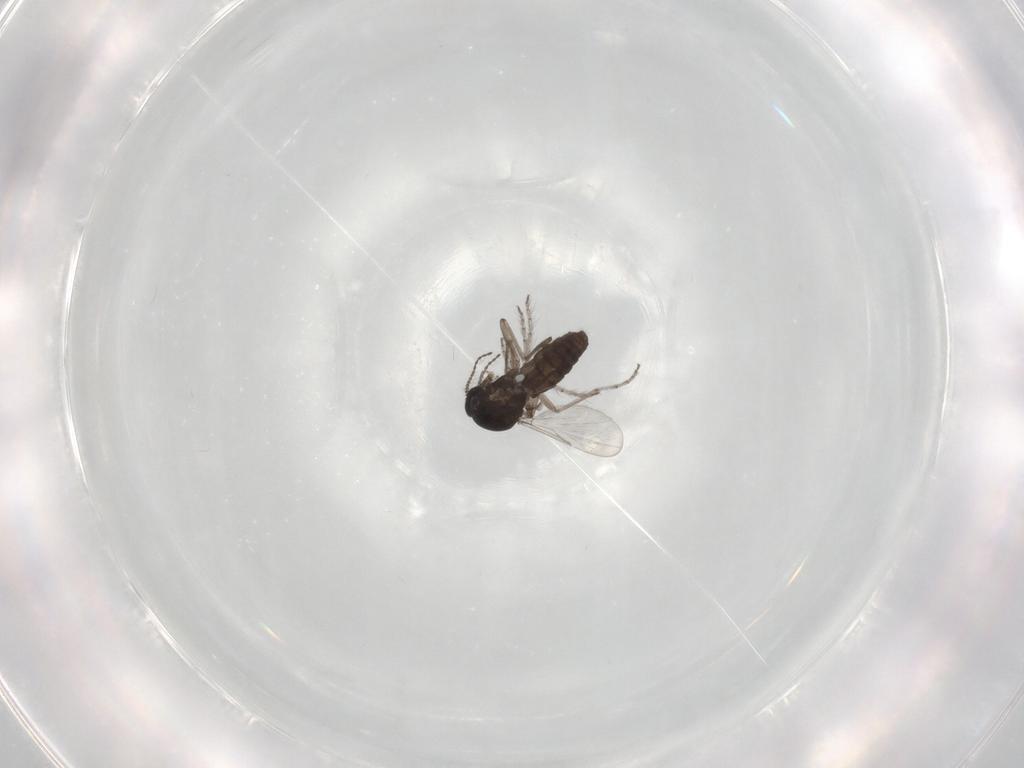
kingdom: Animalia
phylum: Arthropoda
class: Insecta
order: Diptera
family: Ceratopogonidae
